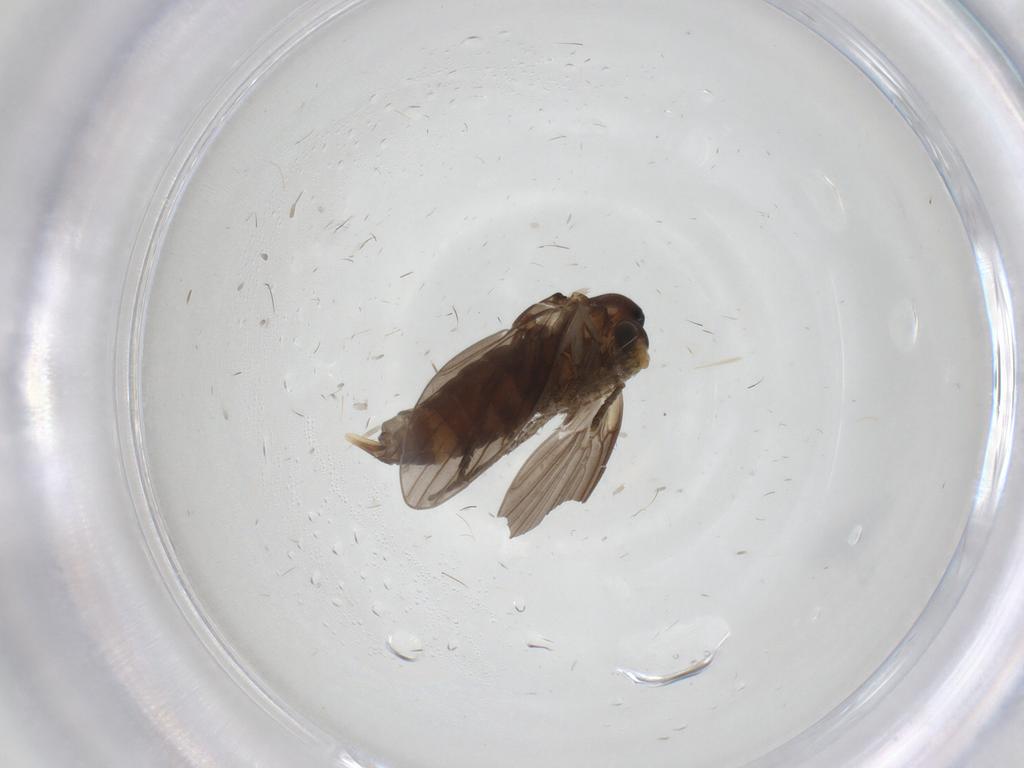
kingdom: Animalia
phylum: Arthropoda
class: Insecta
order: Diptera
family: Psychodidae
